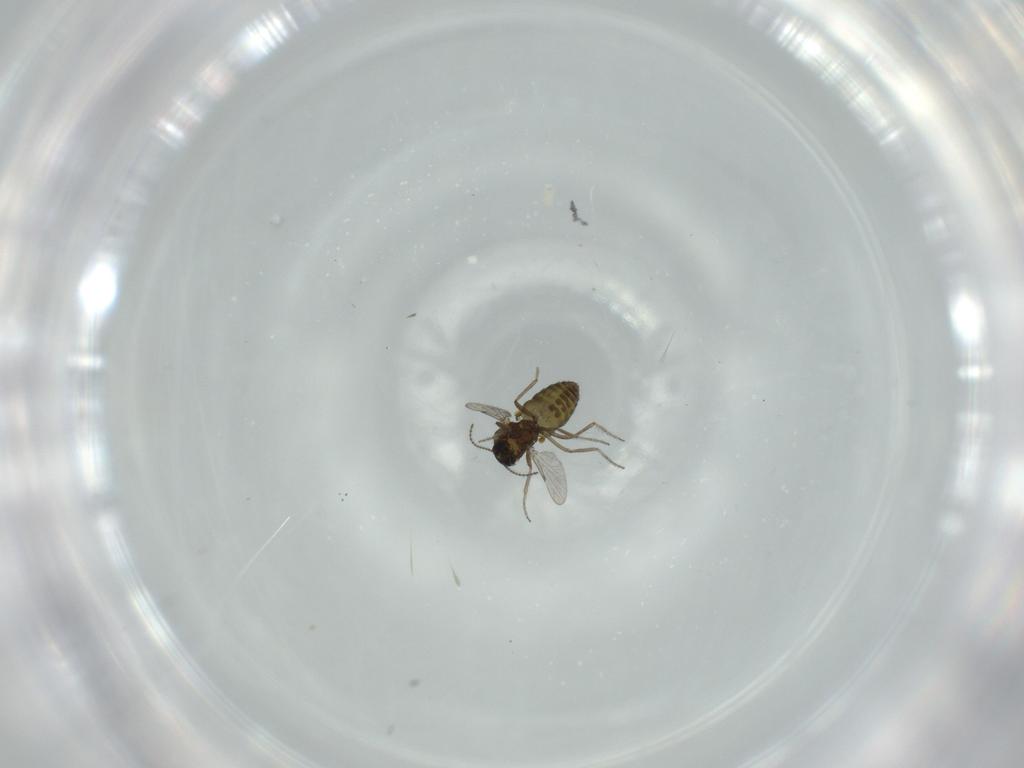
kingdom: Animalia
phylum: Arthropoda
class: Insecta
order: Diptera
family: Ceratopogonidae
